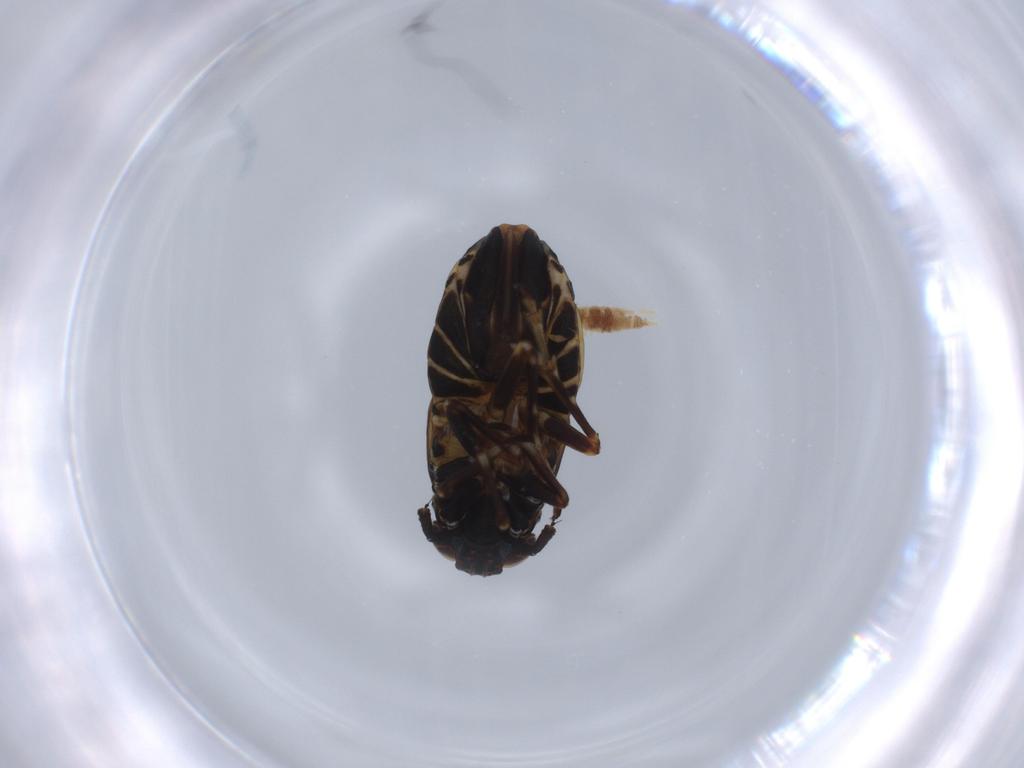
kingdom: Animalia
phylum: Arthropoda
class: Insecta
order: Hemiptera
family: Delphacidae
